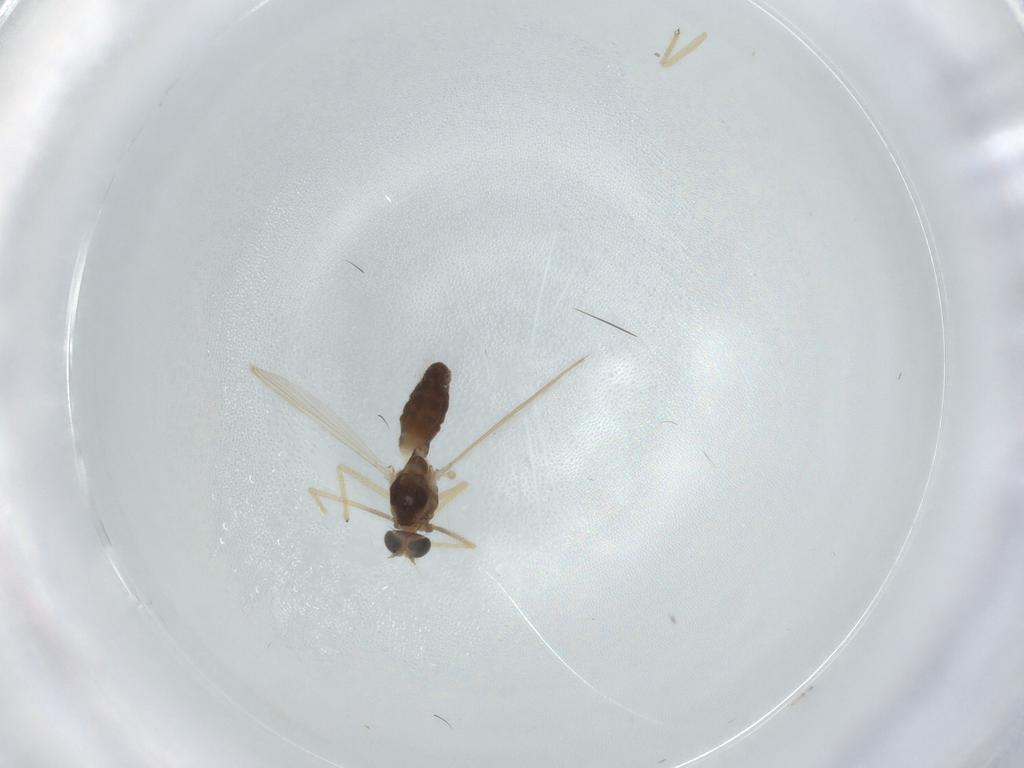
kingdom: Animalia
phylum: Arthropoda
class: Insecta
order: Diptera
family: Cecidomyiidae
